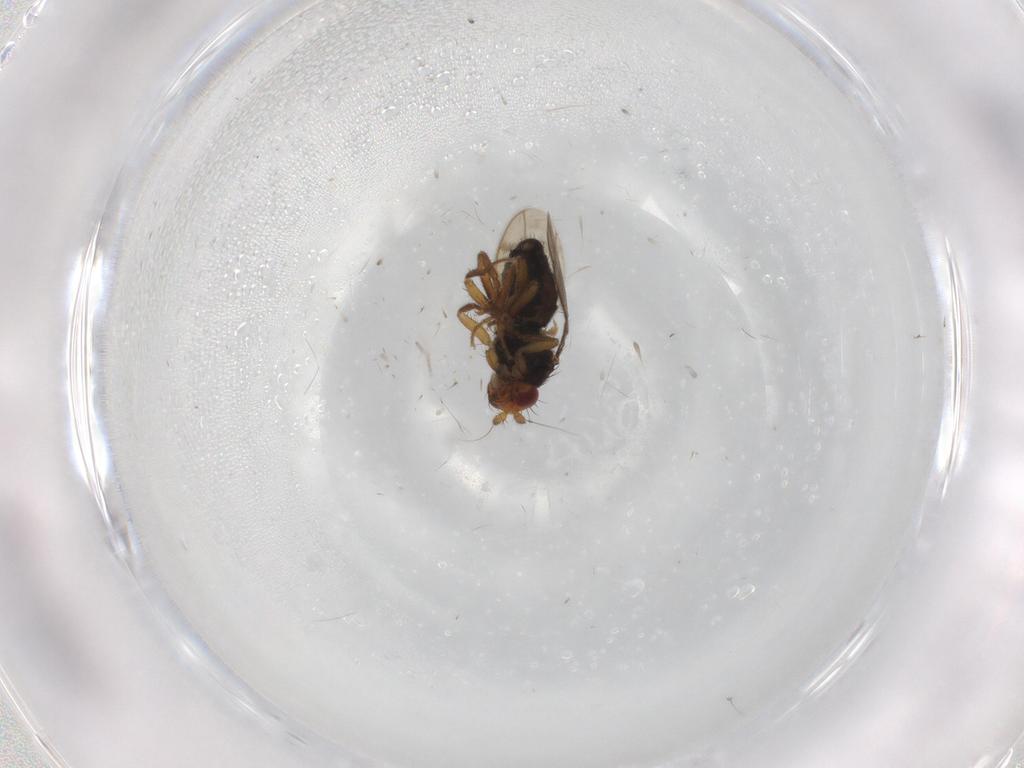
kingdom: Animalia
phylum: Arthropoda
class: Insecta
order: Diptera
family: Sphaeroceridae
